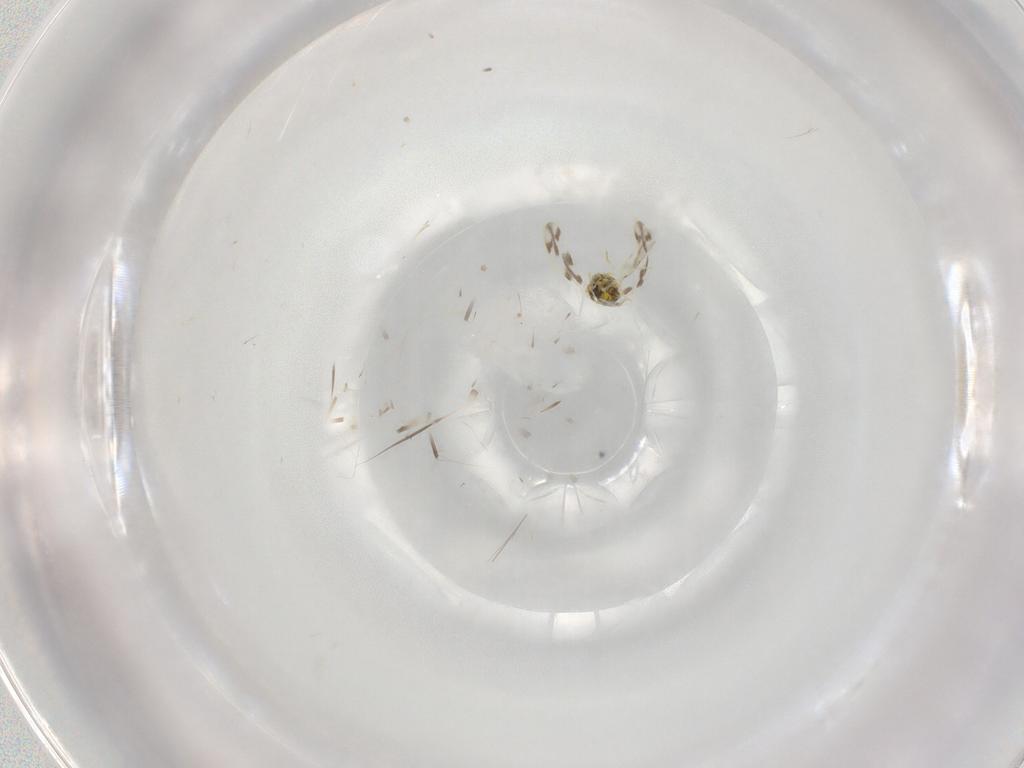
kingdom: Animalia
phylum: Arthropoda
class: Insecta
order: Hemiptera
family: Aleyrodidae
